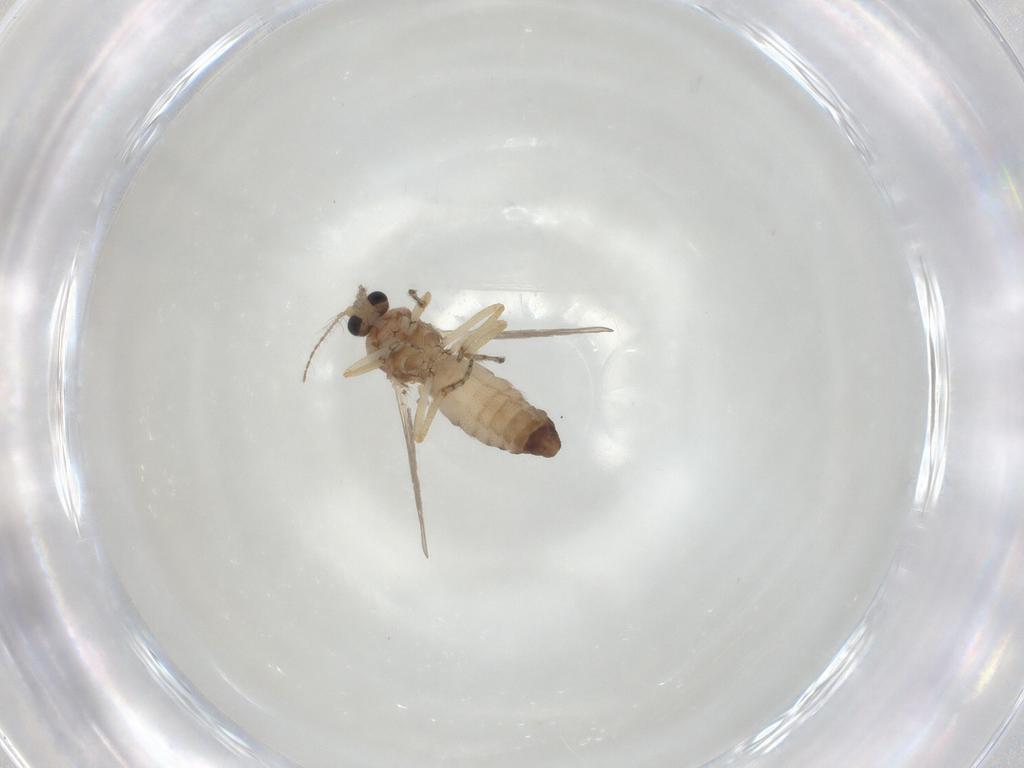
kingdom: Animalia
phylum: Arthropoda
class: Insecta
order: Diptera
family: Ceratopogonidae
